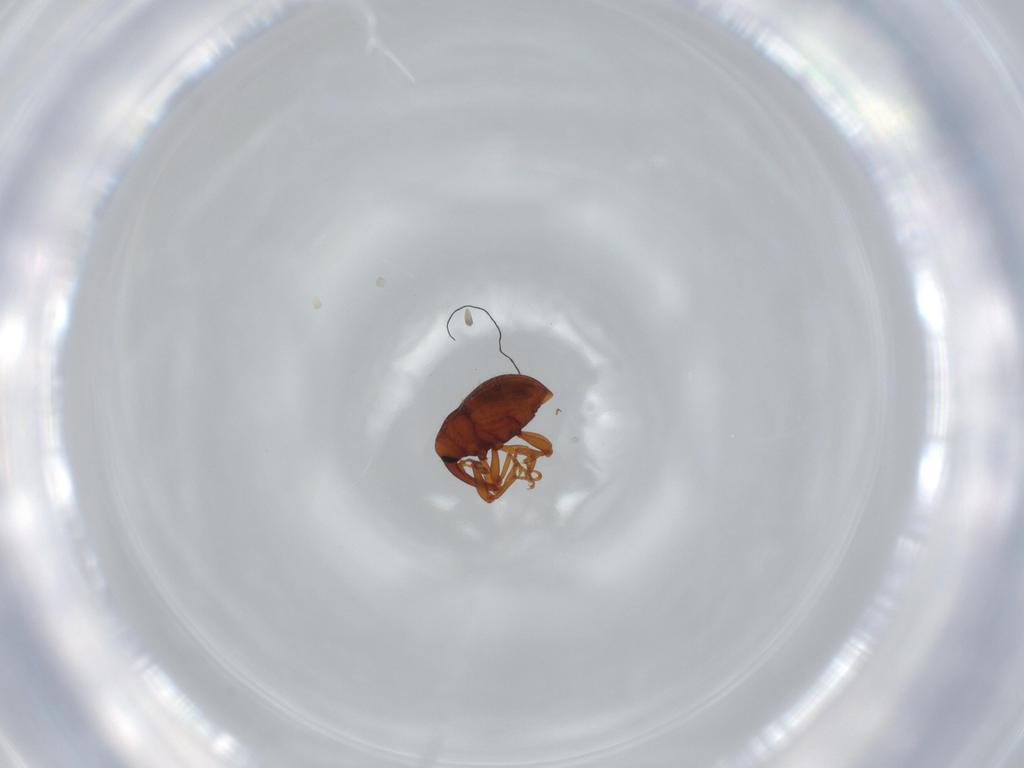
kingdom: Animalia
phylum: Arthropoda
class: Insecta
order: Coleoptera
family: Curculionidae
